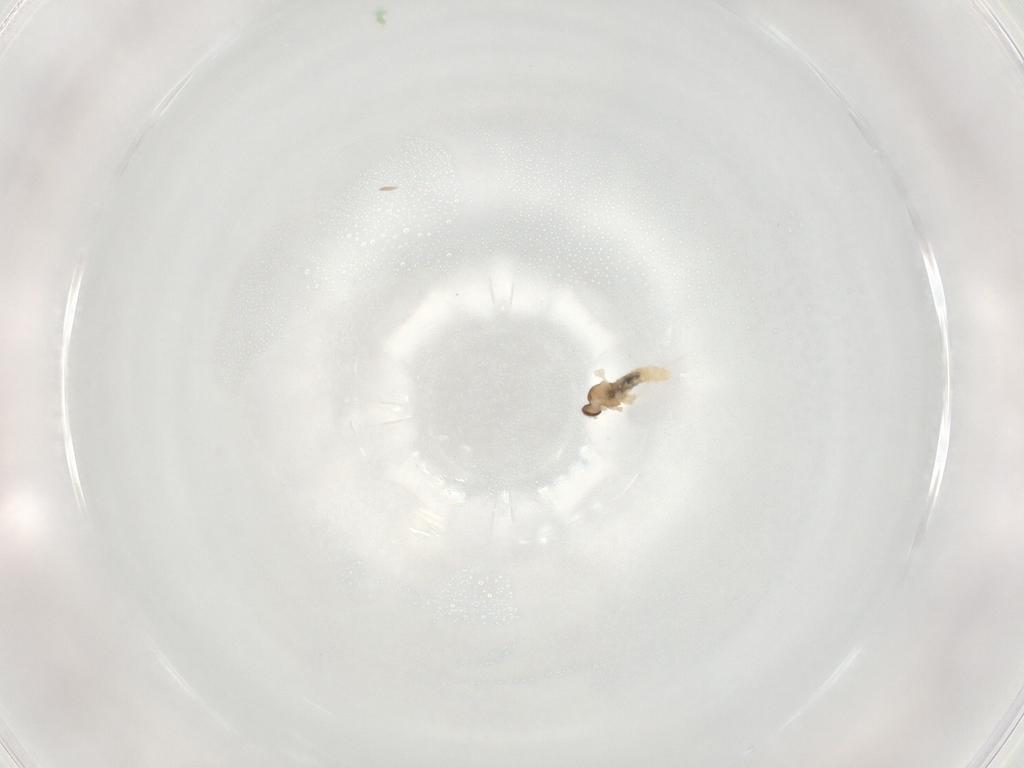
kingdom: Animalia
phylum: Arthropoda
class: Insecta
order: Diptera
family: Cecidomyiidae
